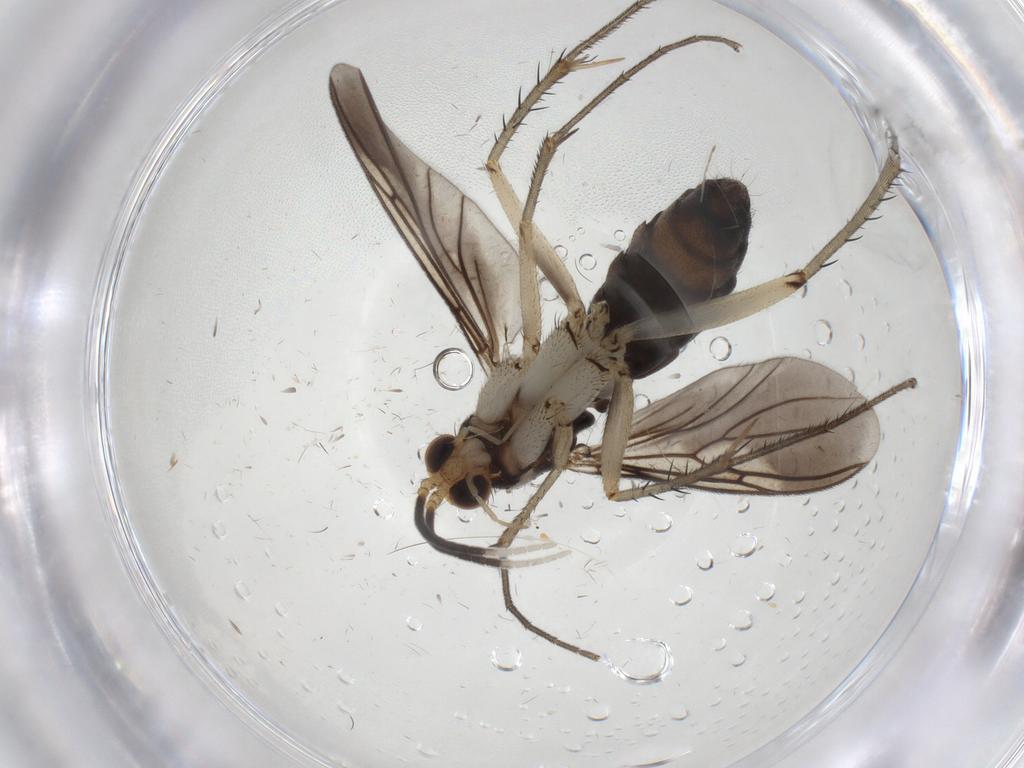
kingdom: Animalia
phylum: Arthropoda
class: Insecta
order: Diptera
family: Mycetophilidae
